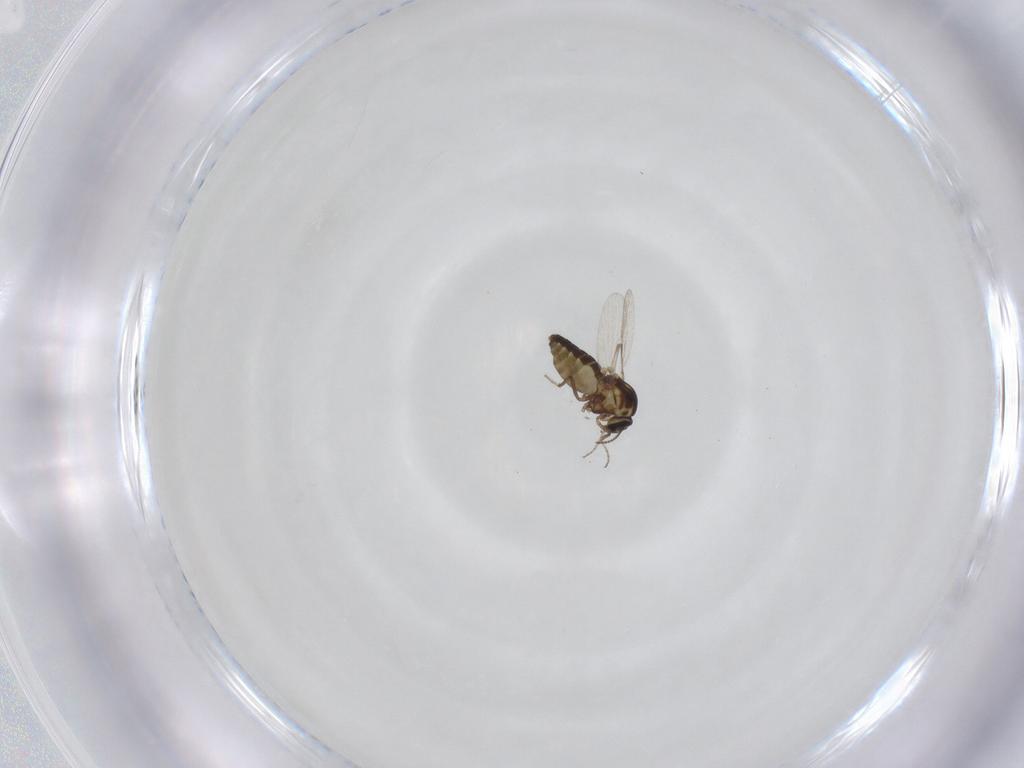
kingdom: Animalia
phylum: Arthropoda
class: Insecta
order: Diptera
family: Ceratopogonidae
